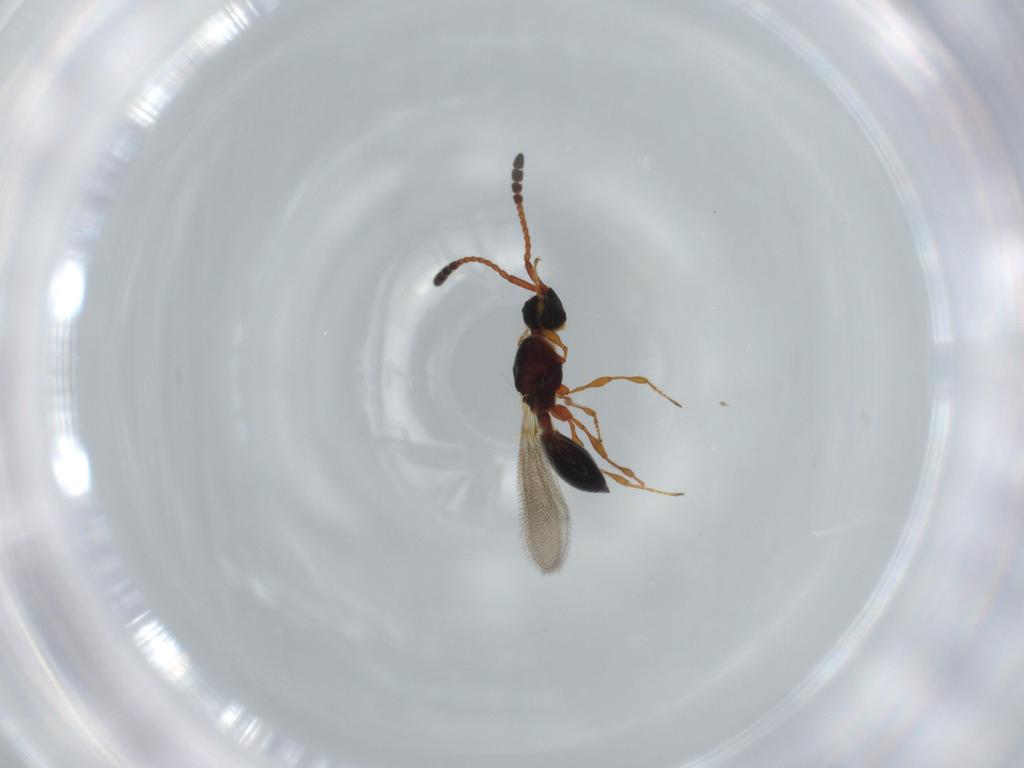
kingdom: Animalia
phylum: Arthropoda
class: Insecta
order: Hymenoptera
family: Diapriidae
